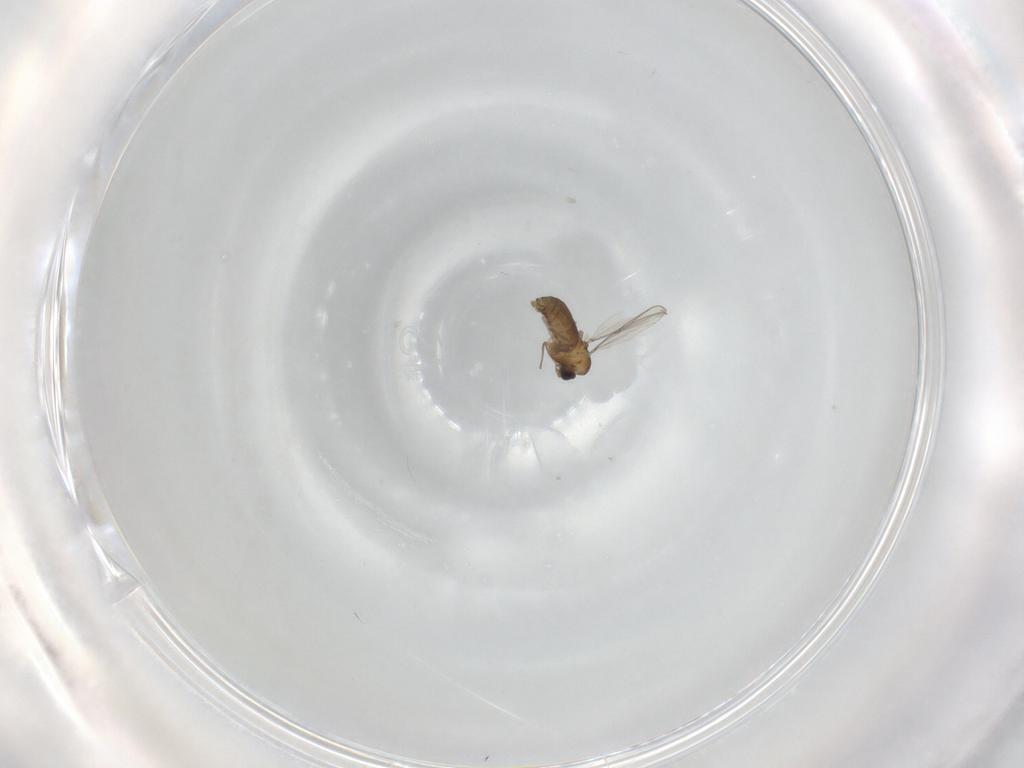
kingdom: Animalia
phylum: Arthropoda
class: Insecta
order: Diptera
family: Chironomidae
